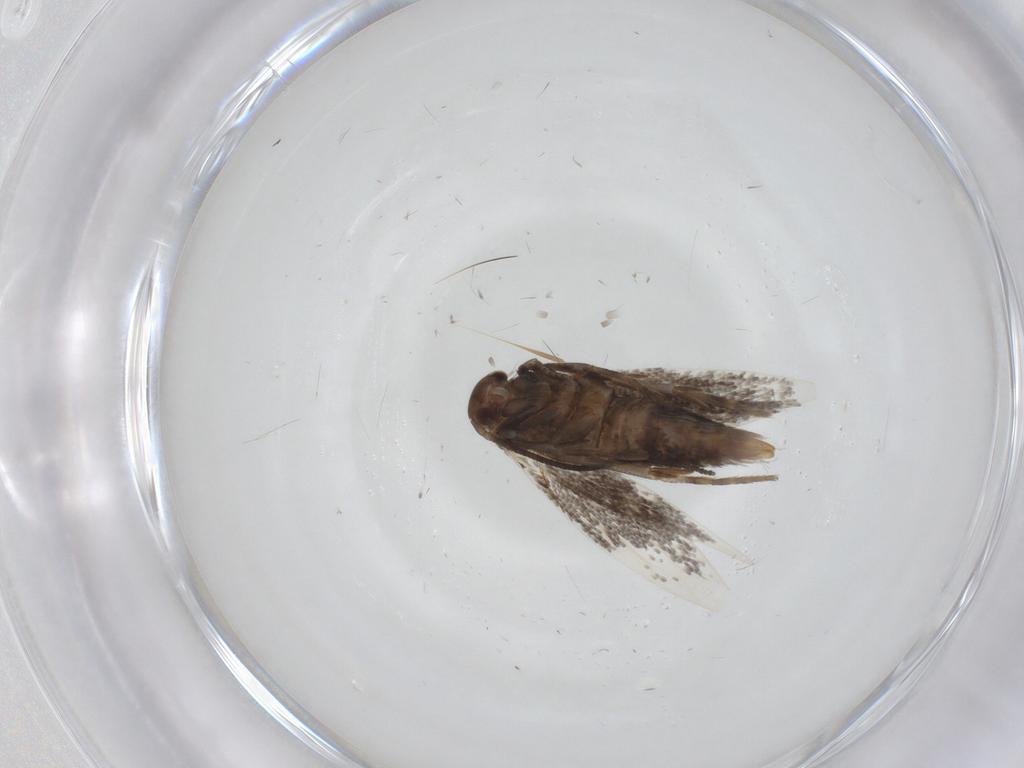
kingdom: Animalia
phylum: Arthropoda
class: Insecta
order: Lepidoptera
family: Elachistidae
